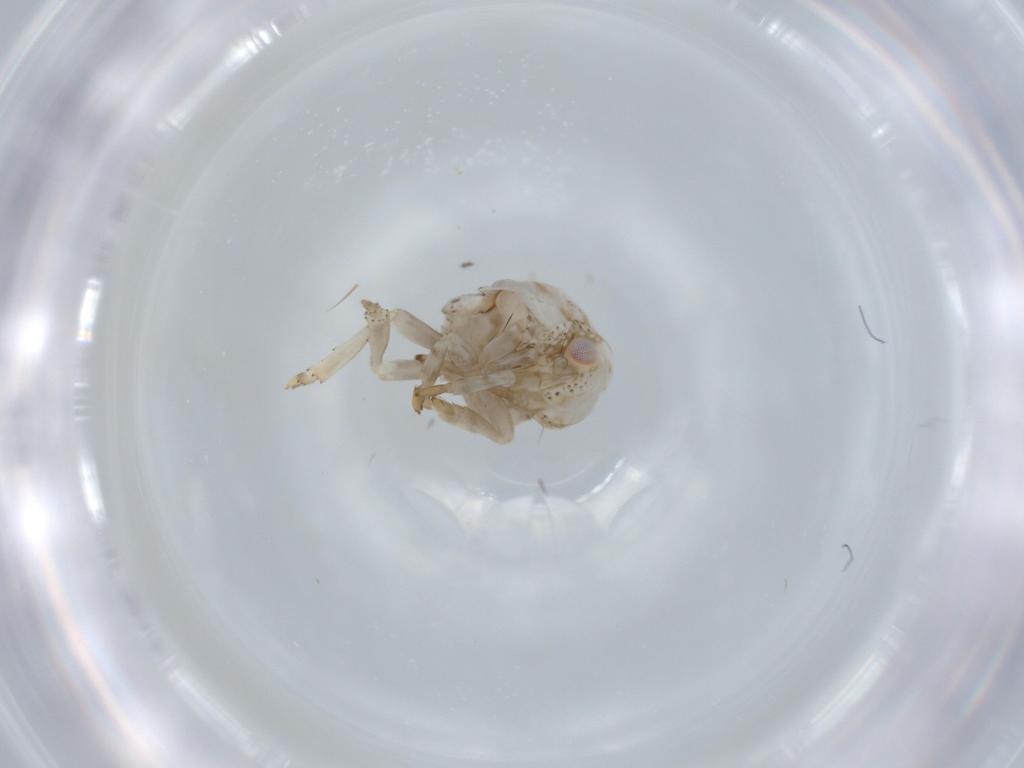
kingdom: Animalia
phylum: Arthropoda
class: Insecta
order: Hemiptera
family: Acanaloniidae
